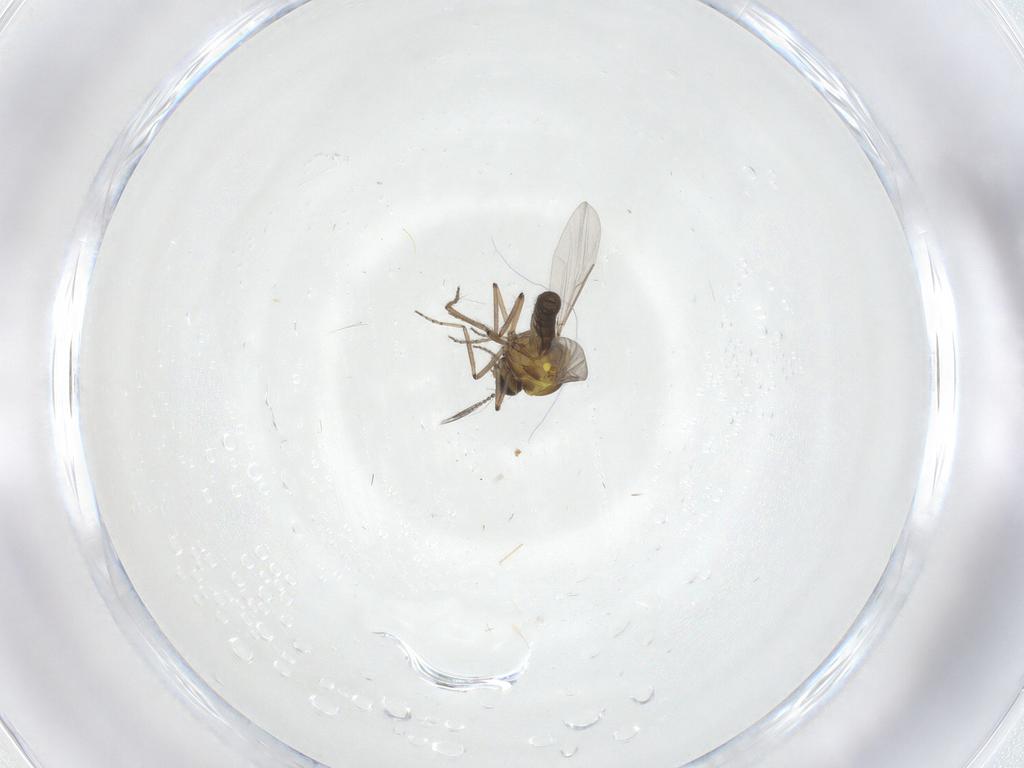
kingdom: Animalia
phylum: Arthropoda
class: Insecta
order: Diptera
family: Ceratopogonidae
